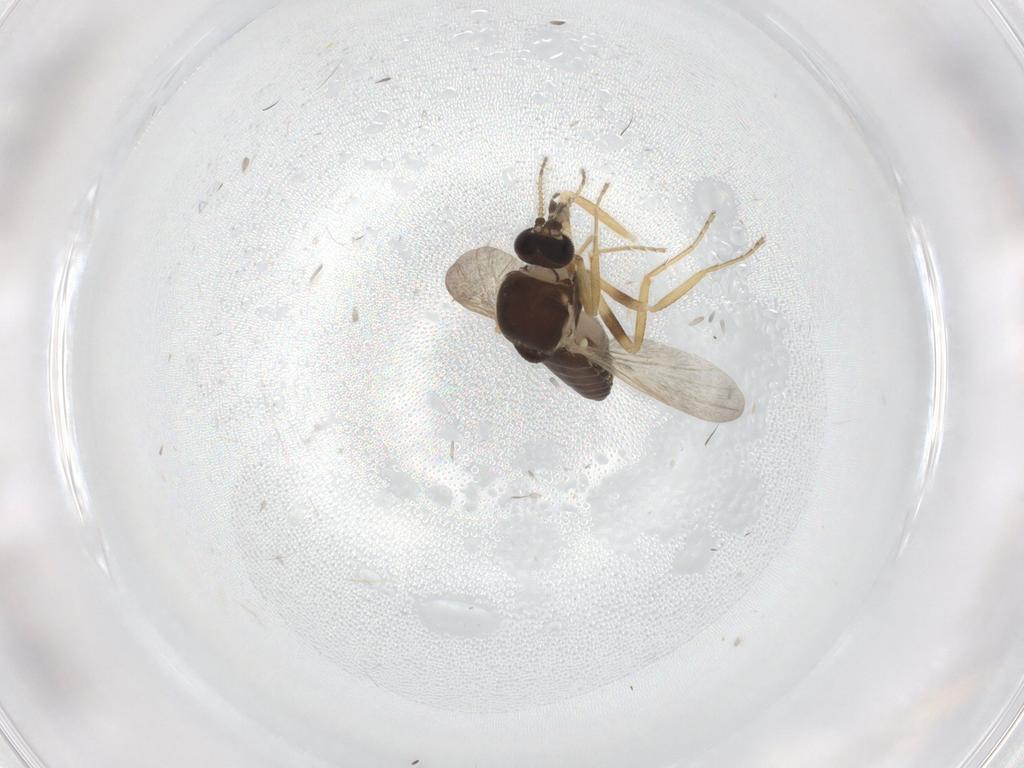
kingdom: Animalia
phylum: Arthropoda
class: Insecta
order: Diptera
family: Ceratopogonidae
